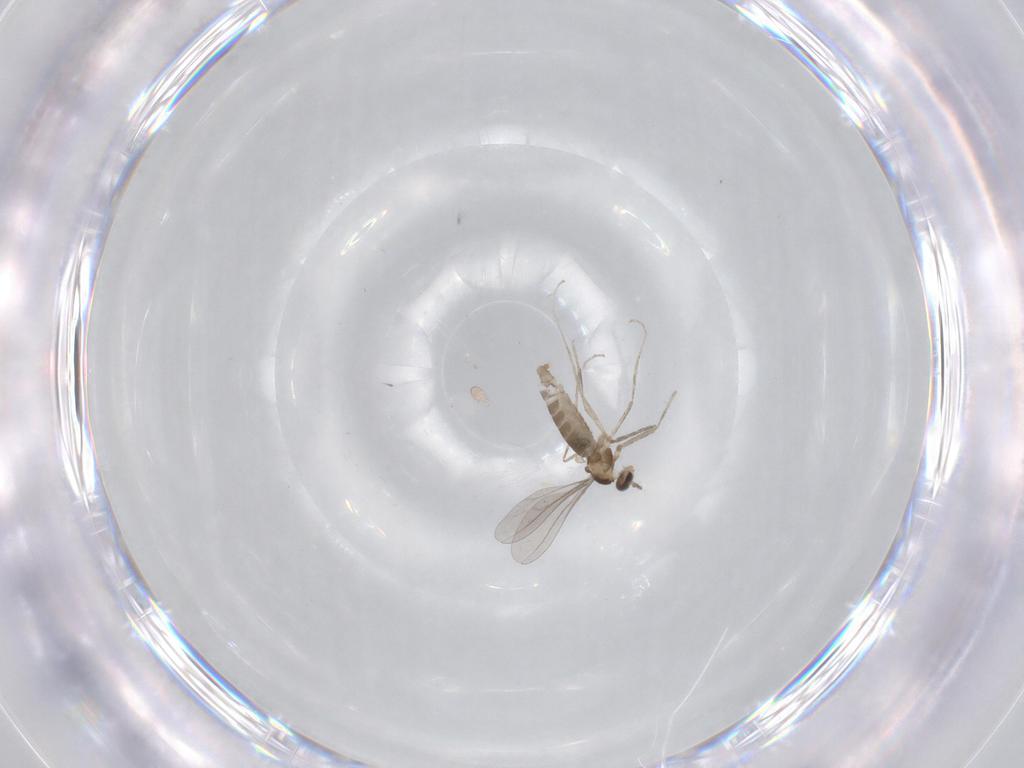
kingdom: Animalia
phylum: Arthropoda
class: Insecta
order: Diptera
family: Chironomidae
